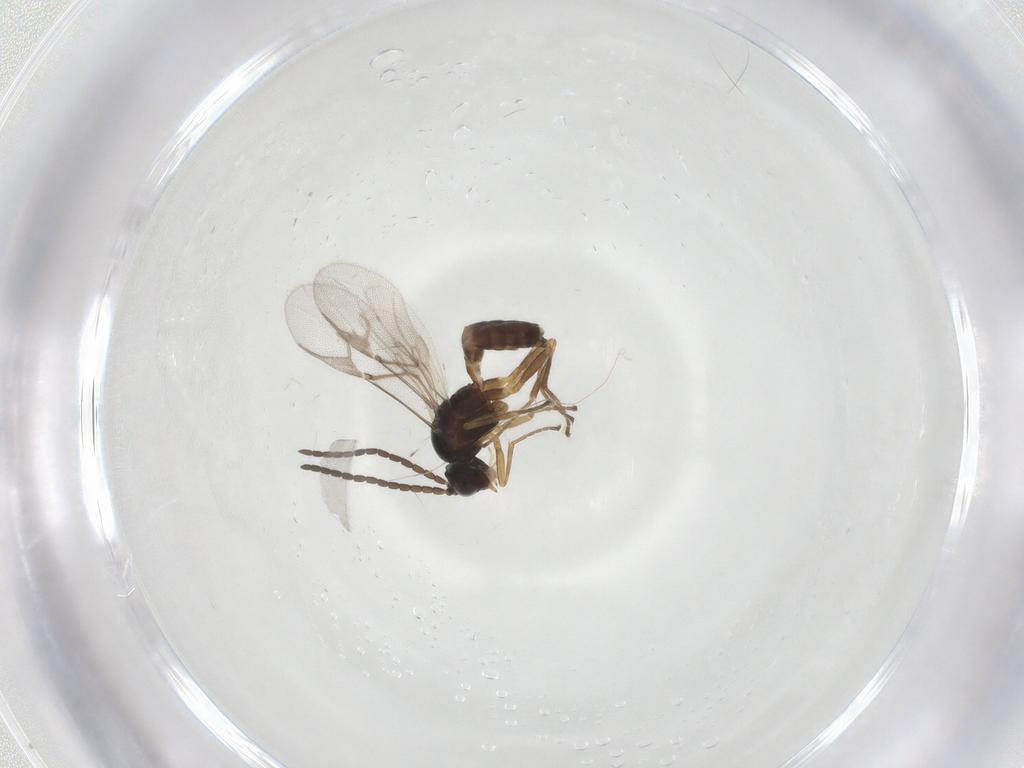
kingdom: Animalia
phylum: Arthropoda
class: Insecta
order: Hymenoptera
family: Braconidae
